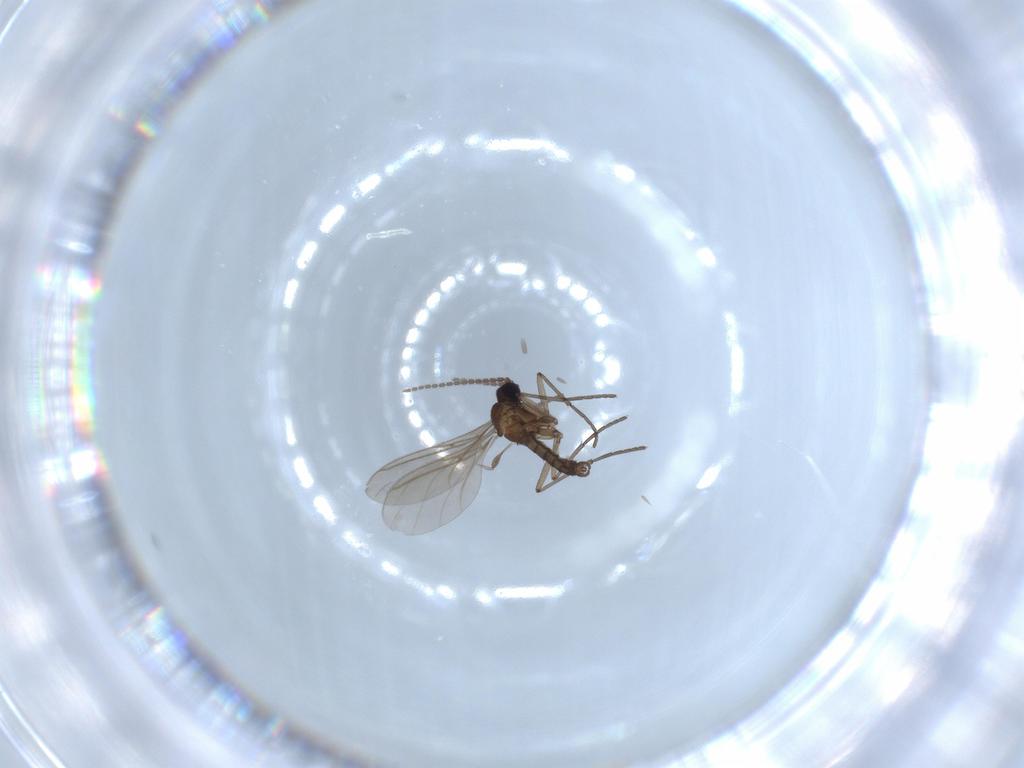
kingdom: Animalia
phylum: Arthropoda
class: Insecta
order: Diptera
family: Sciaridae
